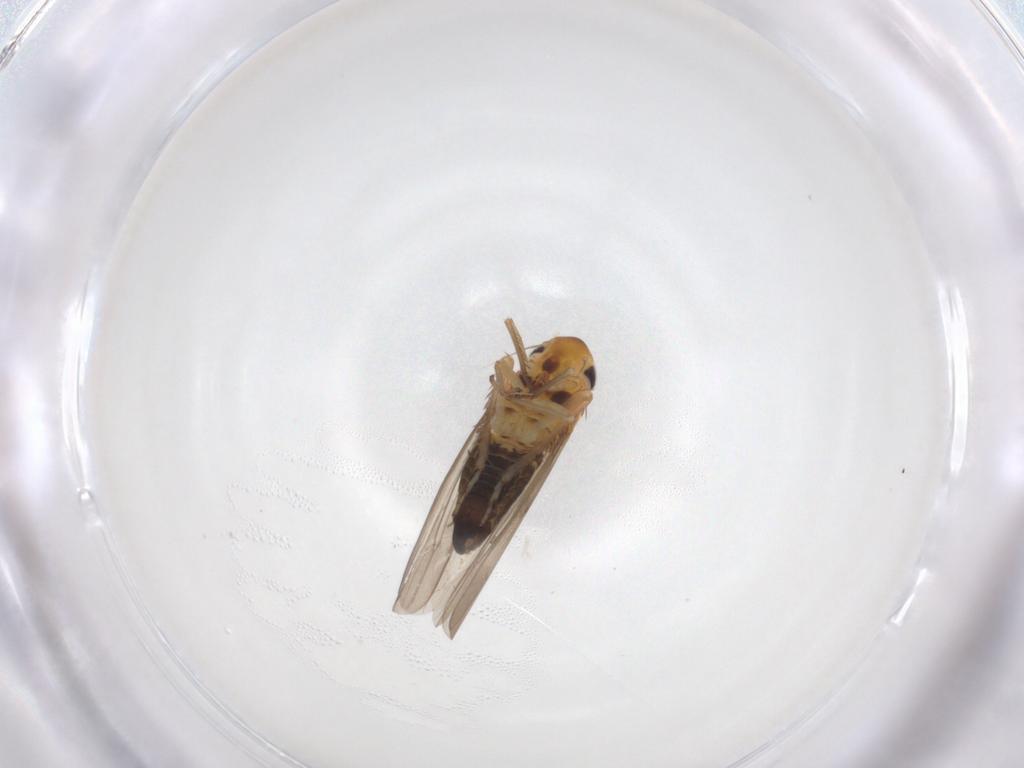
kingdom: Animalia
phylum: Arthropoda
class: Insecta
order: Hemiptera
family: Cicadellidae
